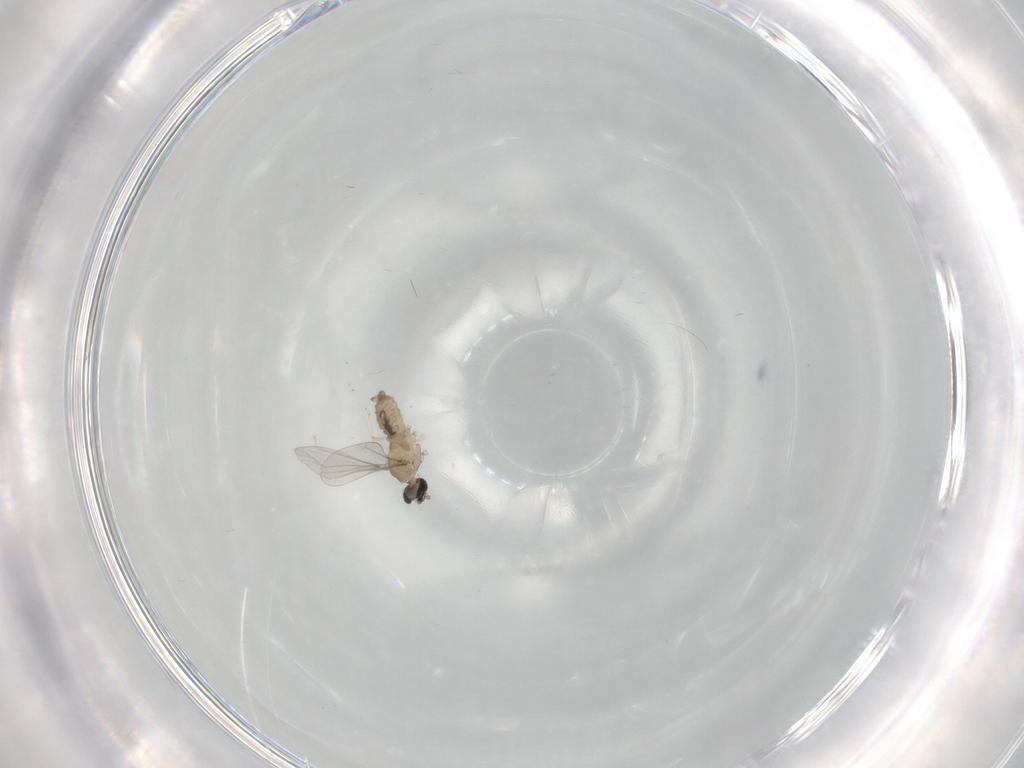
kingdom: Animalia
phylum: Arthropoda
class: Insecta
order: Diptera
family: Cecidomyiidae
